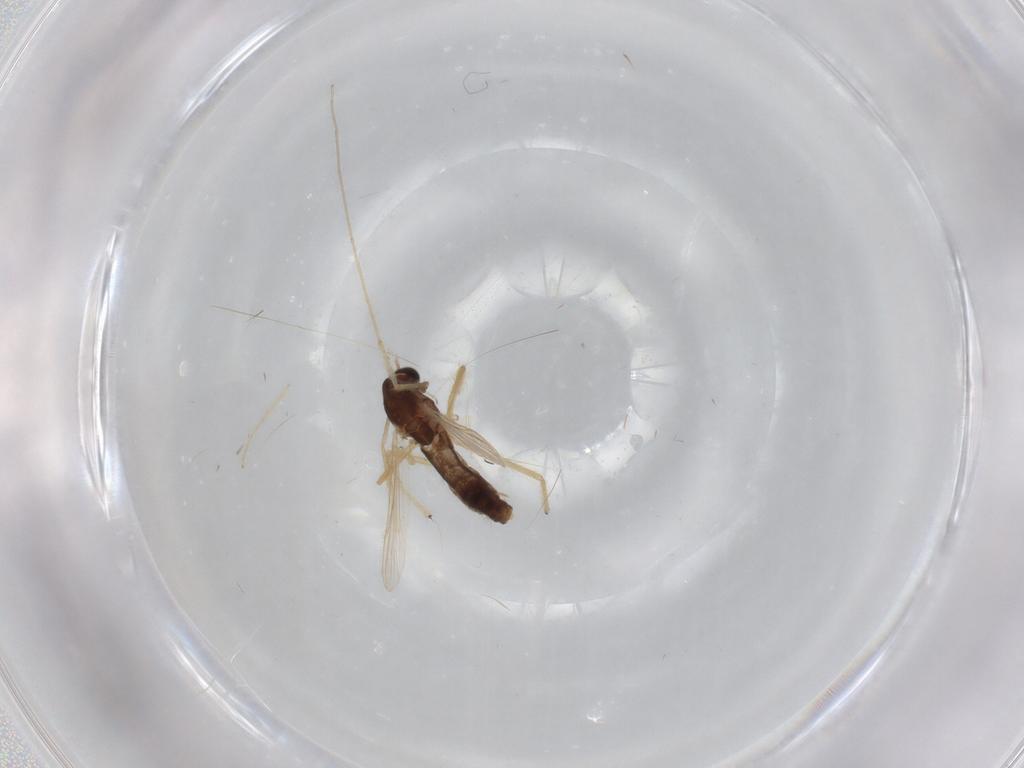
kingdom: Animalia
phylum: Arthropoda
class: Insecta
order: Diptera
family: Chironomidae
